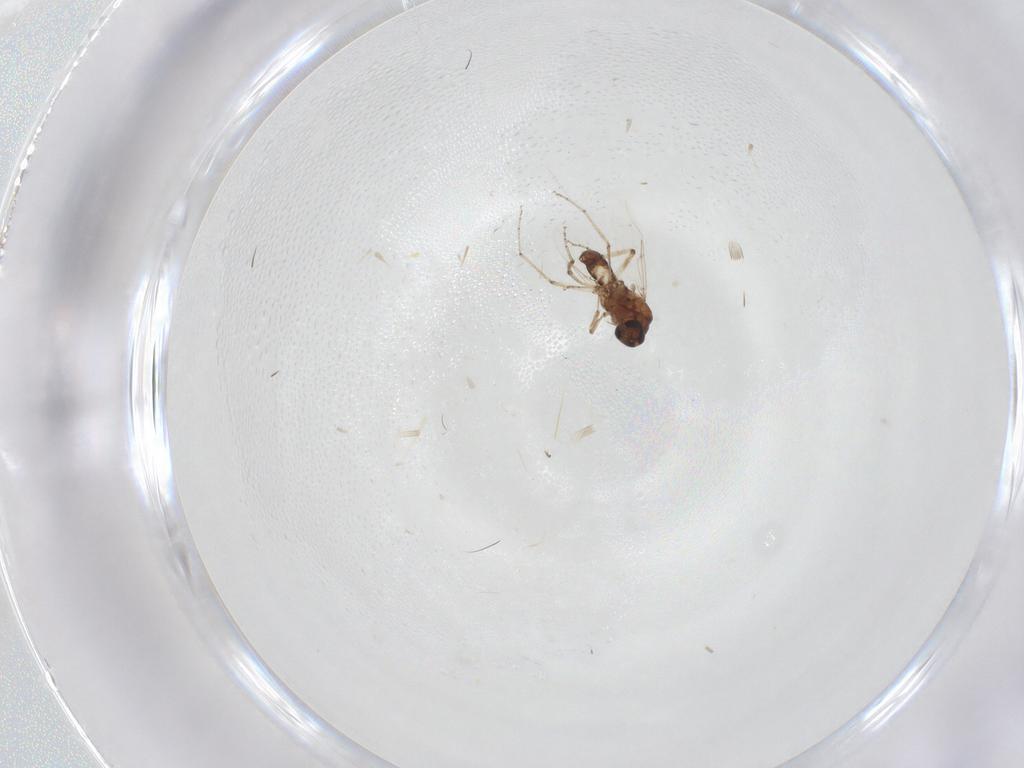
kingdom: Animalia
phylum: Arthropoda
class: Insecta
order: Diptera
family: Ceratopogonidae
